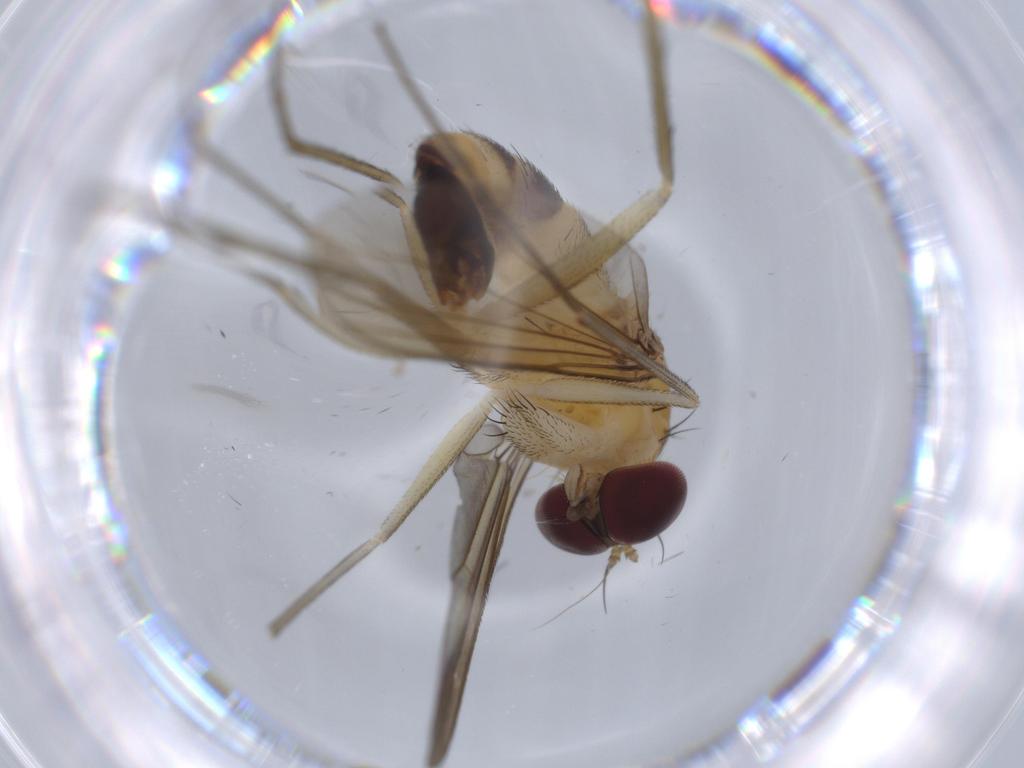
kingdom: Animalia
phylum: Arthropoda
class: Insecta
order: Diptera
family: Dolichopodidae
